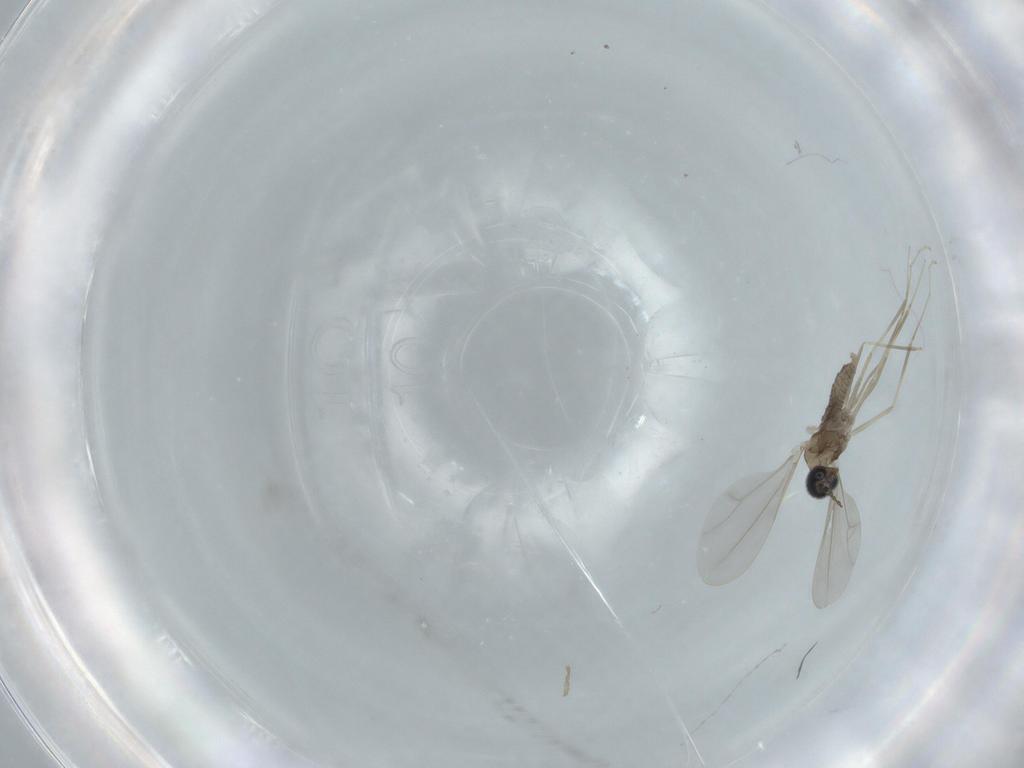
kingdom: Animalia
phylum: Arthropoda
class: Insecta
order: Diptera
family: Cecidomyiidae
